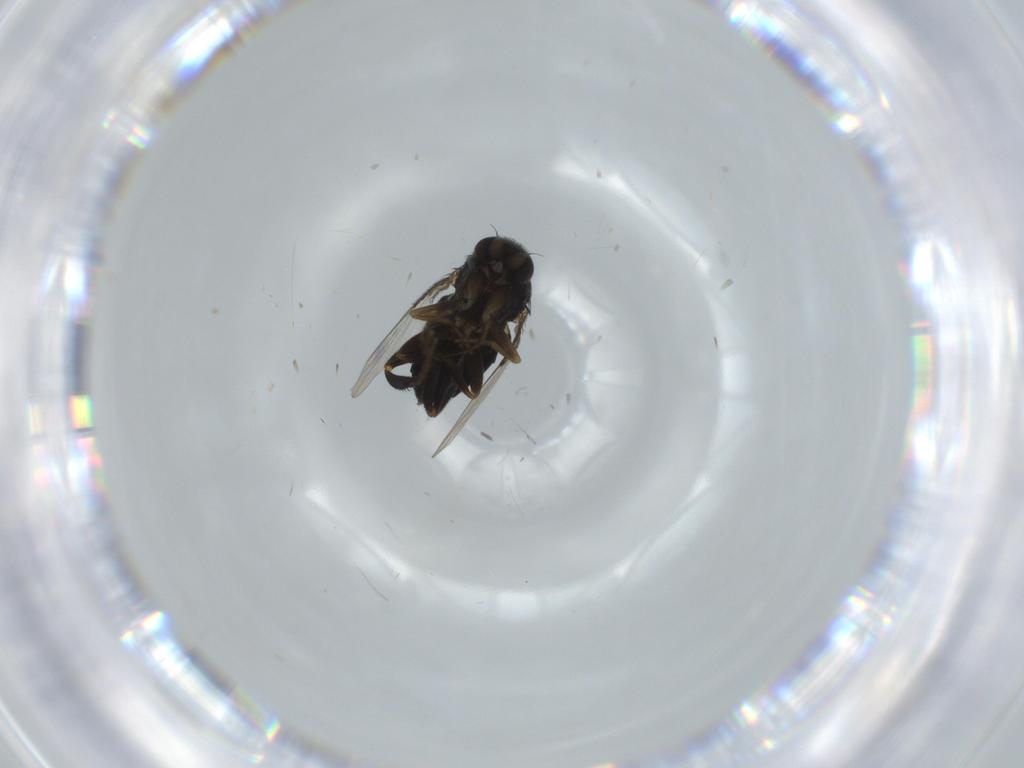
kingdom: Animalia
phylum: Arthropoda
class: Insecta
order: Diptera
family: Phoridae
